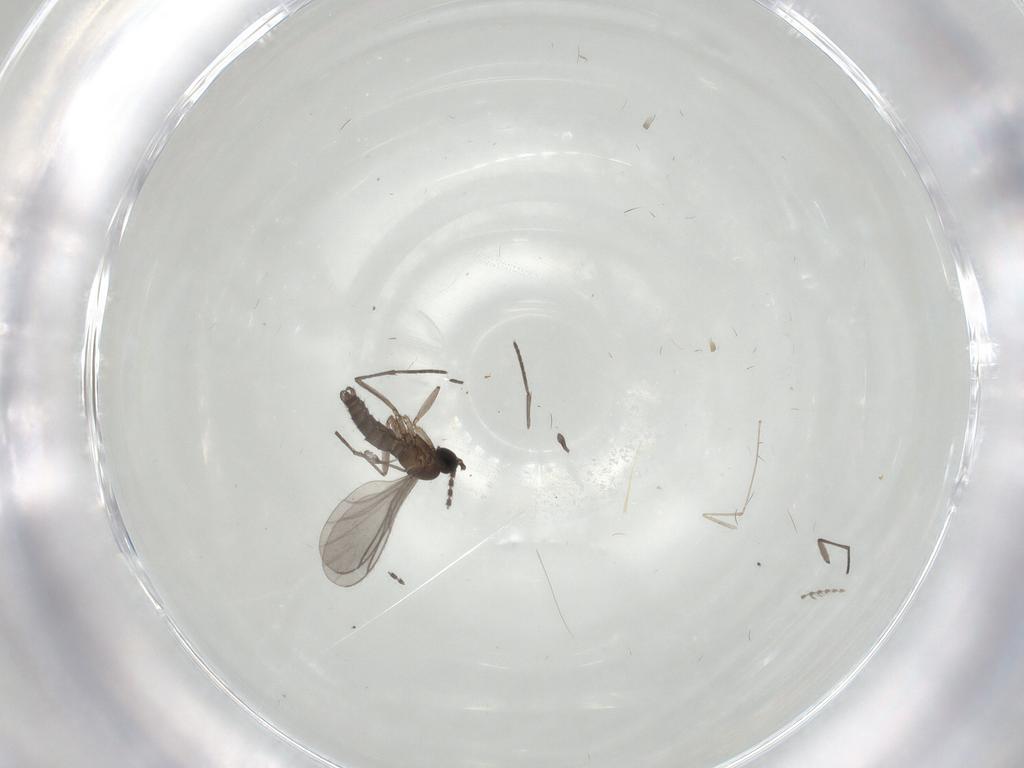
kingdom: Animalia
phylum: Arthropoda
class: Insecta
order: Diptera
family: Cecidomyiidae
